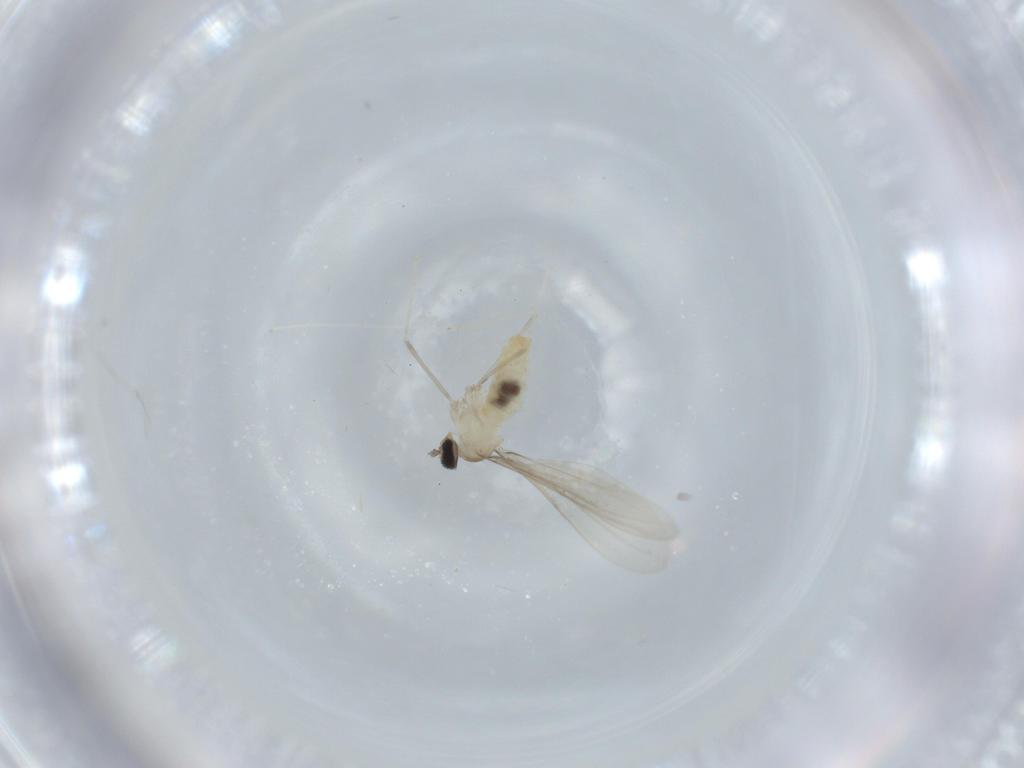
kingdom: Animalia
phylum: Arthropoda
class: Insecta
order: Diptera
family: Cecidomyiidae
